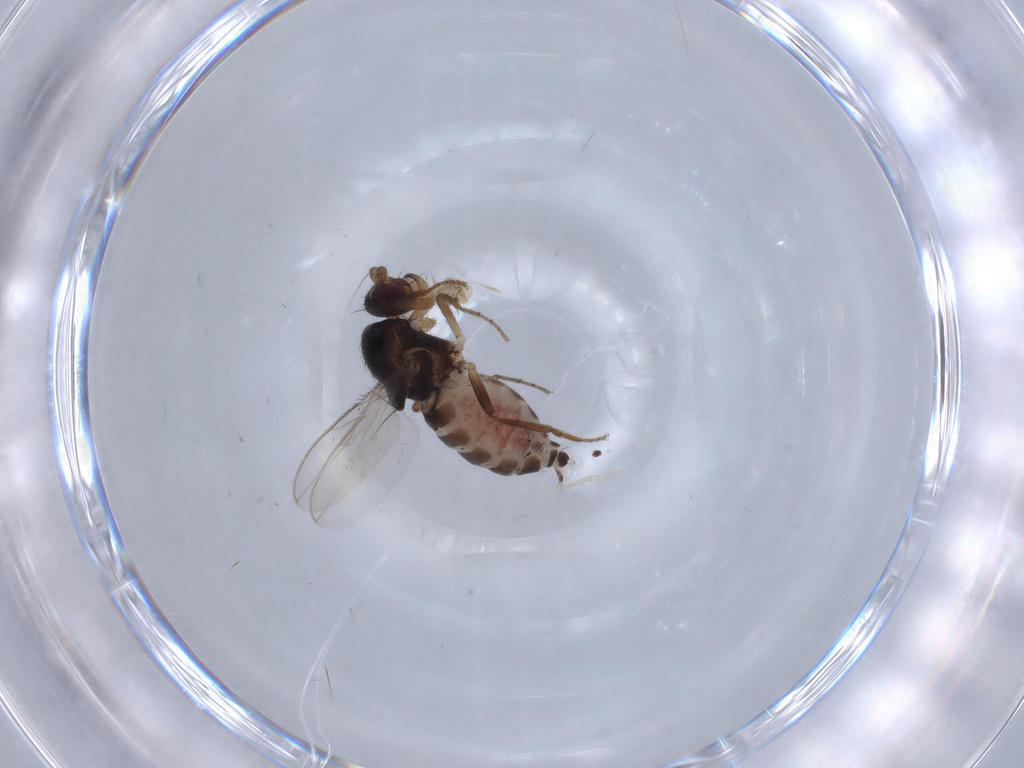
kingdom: Animalia
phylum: Arthropoda
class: Insecta
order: Diptera
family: Sphaeroceridae
